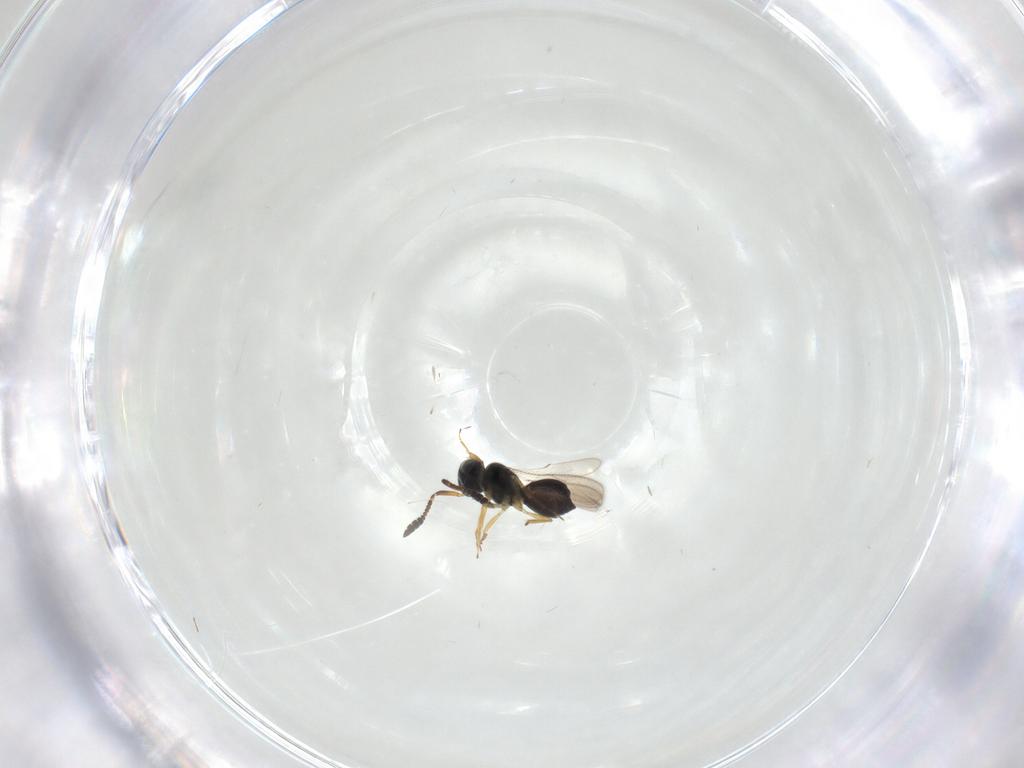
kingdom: Animalia
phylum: Arthropoda
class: Insecta
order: Hymenoptera
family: Scelionidae
